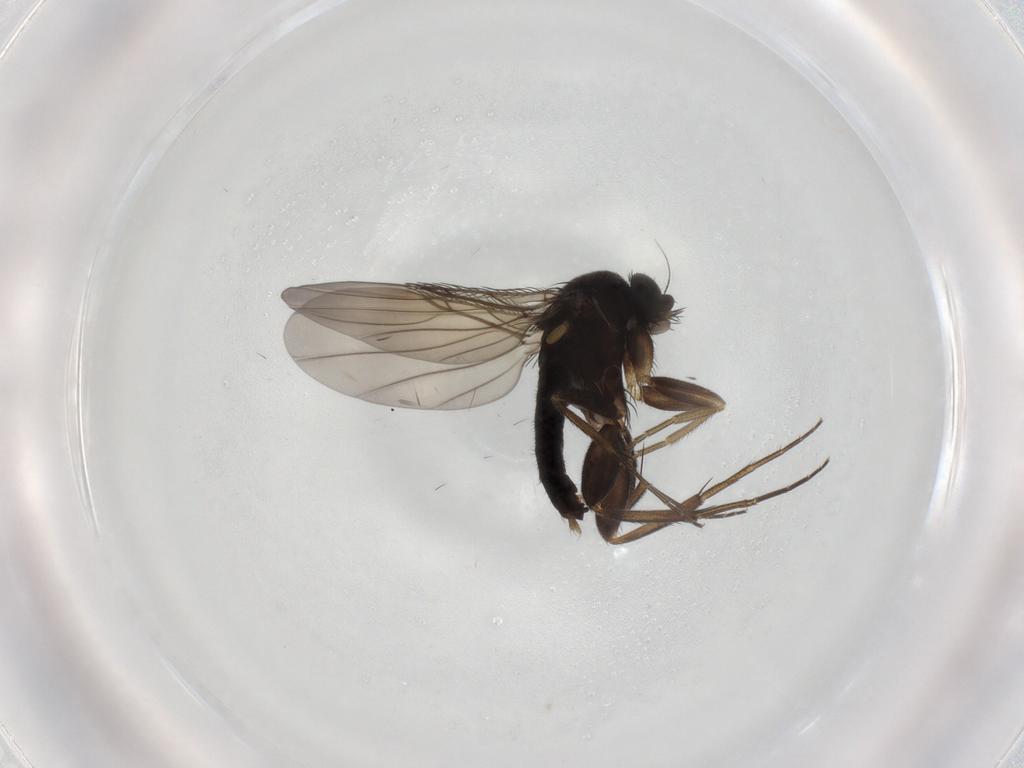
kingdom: Animalia
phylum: Arthropoda
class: Insecta
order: Diptera
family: Phoridae
